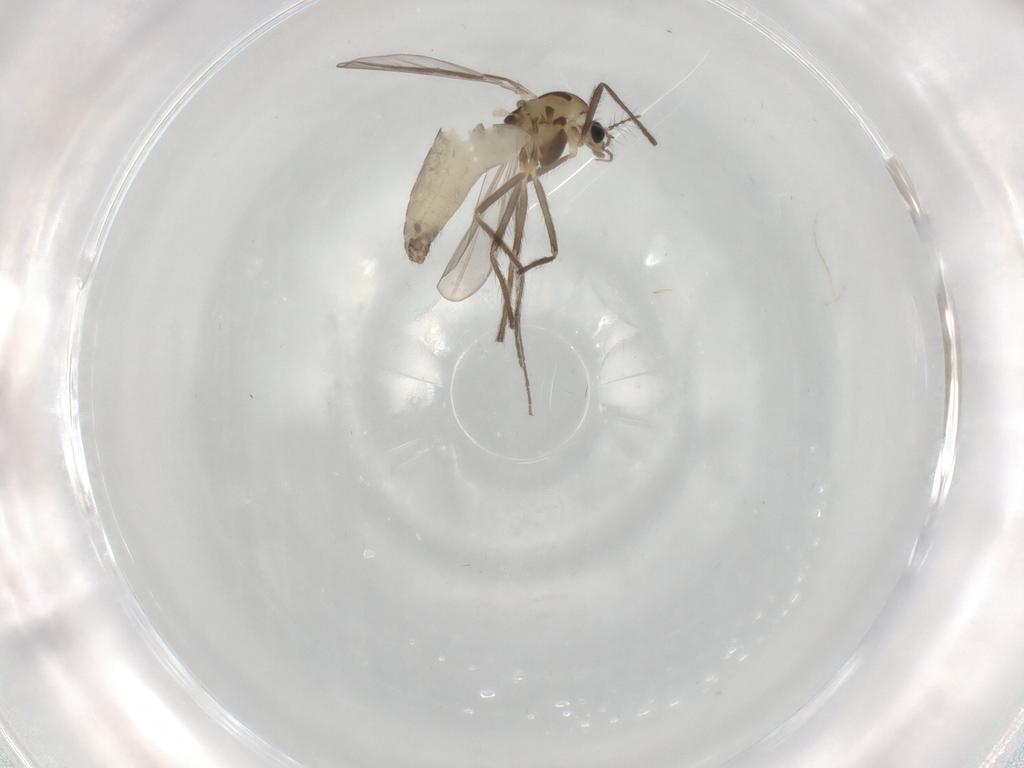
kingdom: Animalia
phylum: Arthropoda
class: Insecta
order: Diptera
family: Chironomidae
